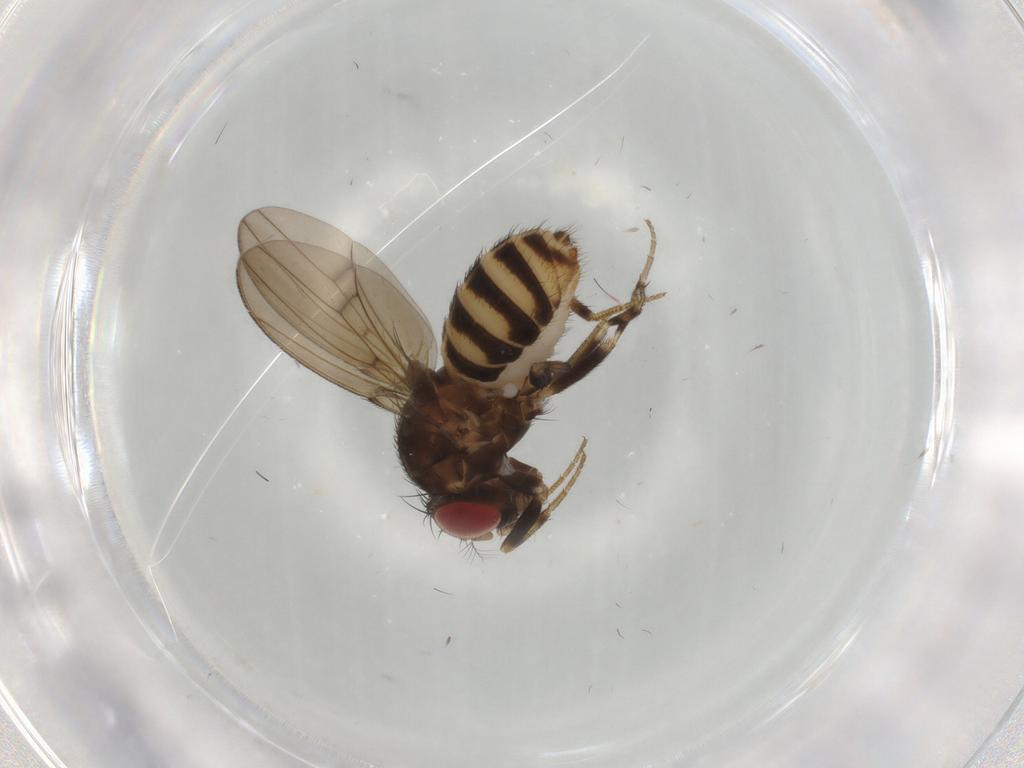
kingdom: Animalia
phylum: Arthropoda
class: Insecta
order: Diptera
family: Drosophilidae
